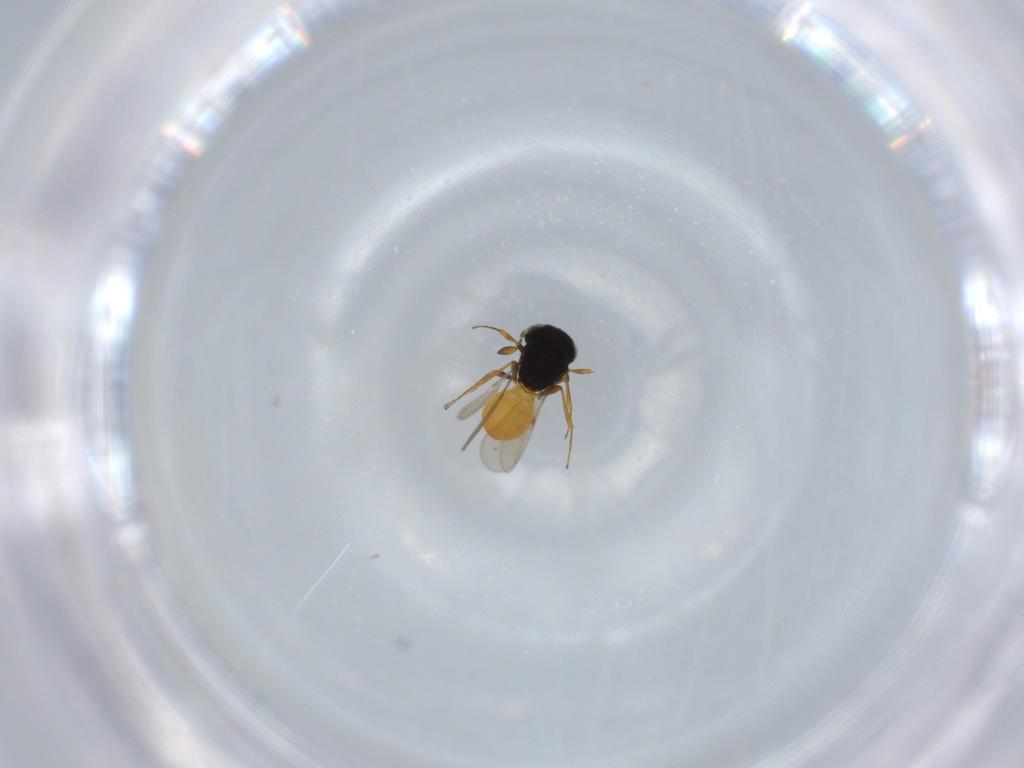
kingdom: Animalia
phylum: Arthropoda
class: Insecta
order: Hymenoptera
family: Scelionidae
